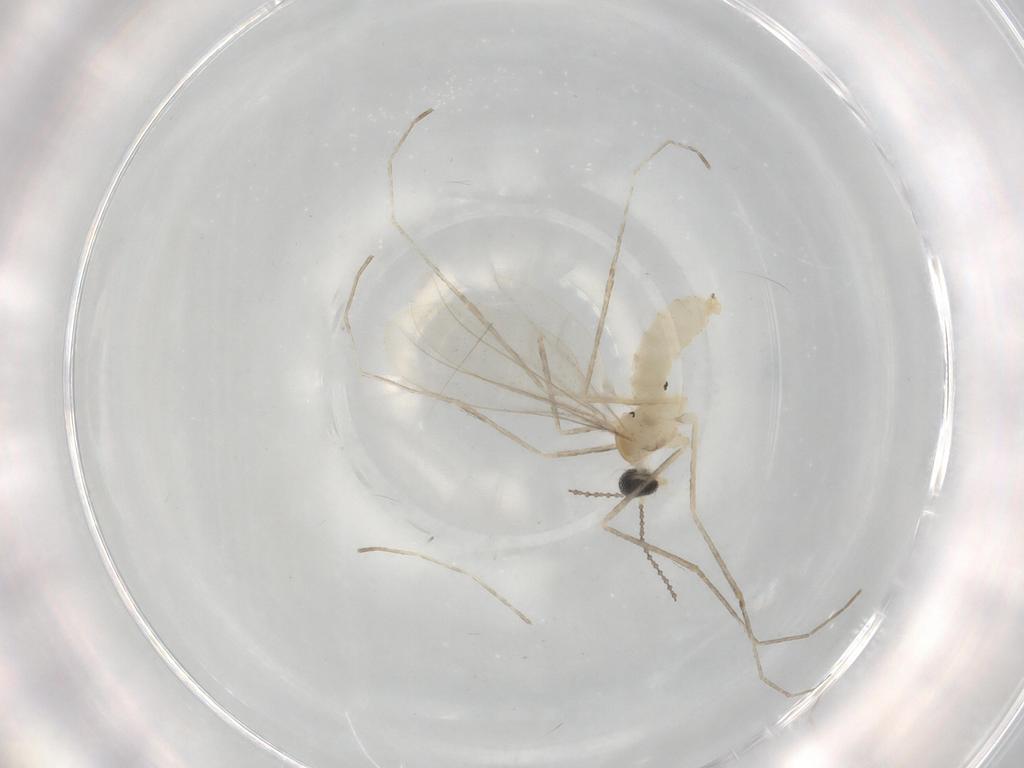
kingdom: Animalia
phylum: Arthropoda
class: Insecta
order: Diptera
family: Cecidomyiidae
